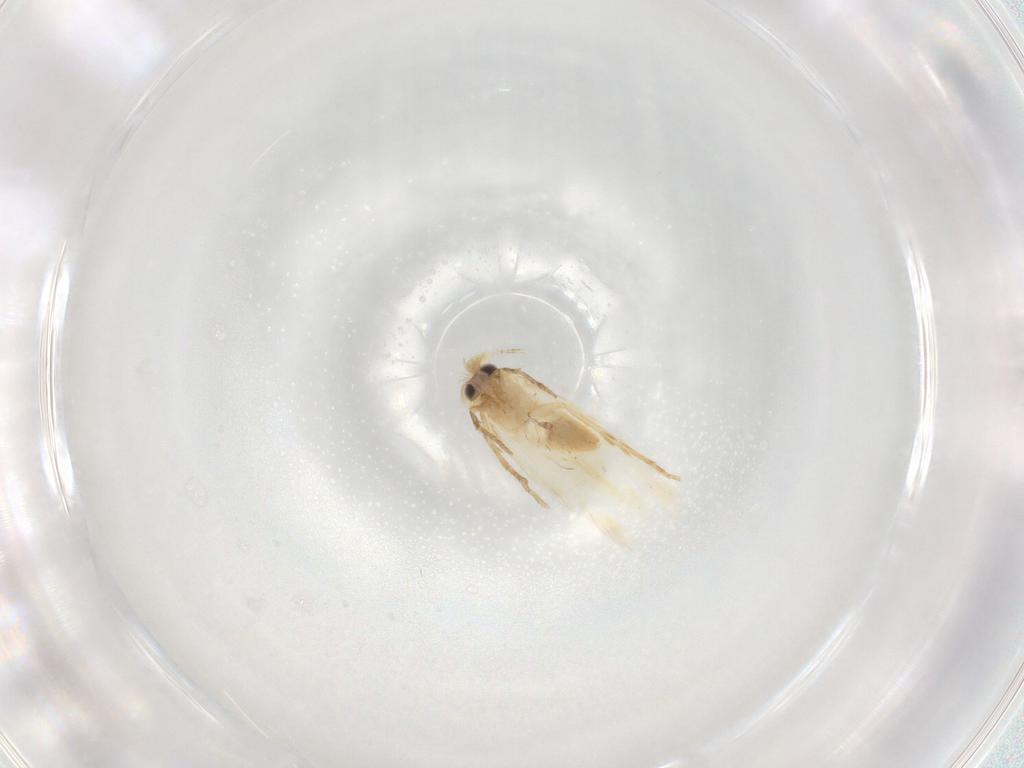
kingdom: Animalia
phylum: Arthropoda
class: Insecta
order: Lepidoptera
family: Nepticulidae
